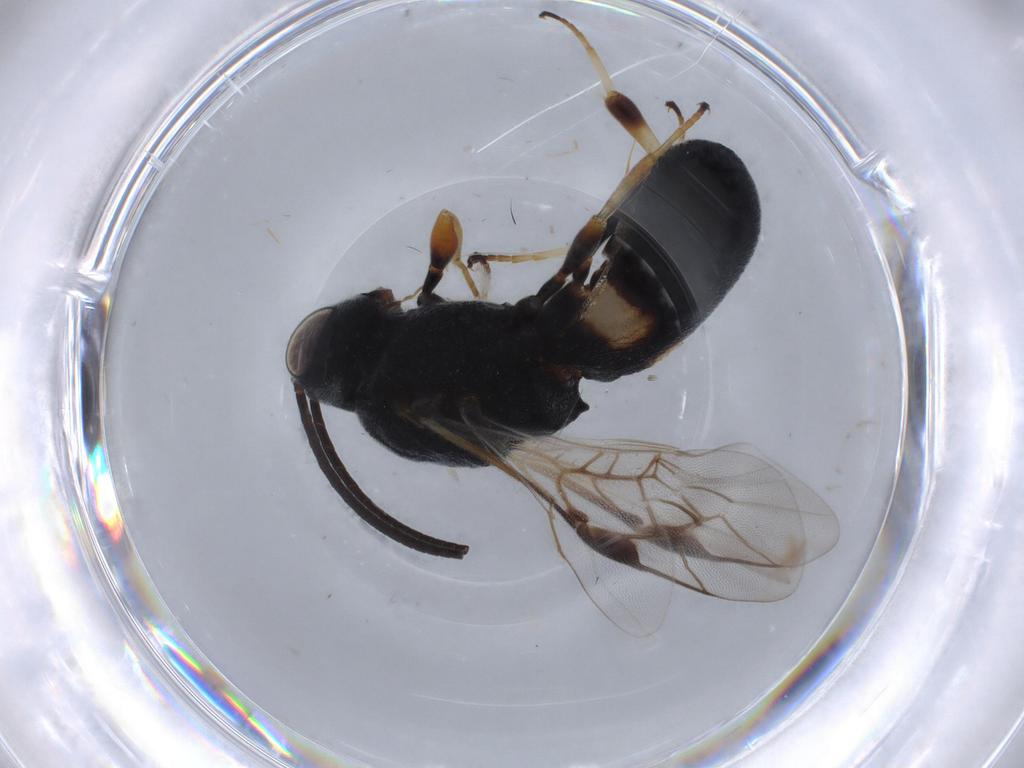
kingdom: Animalia
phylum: Arthropoda
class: Insecta
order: Hymenoptera
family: Braconidae
